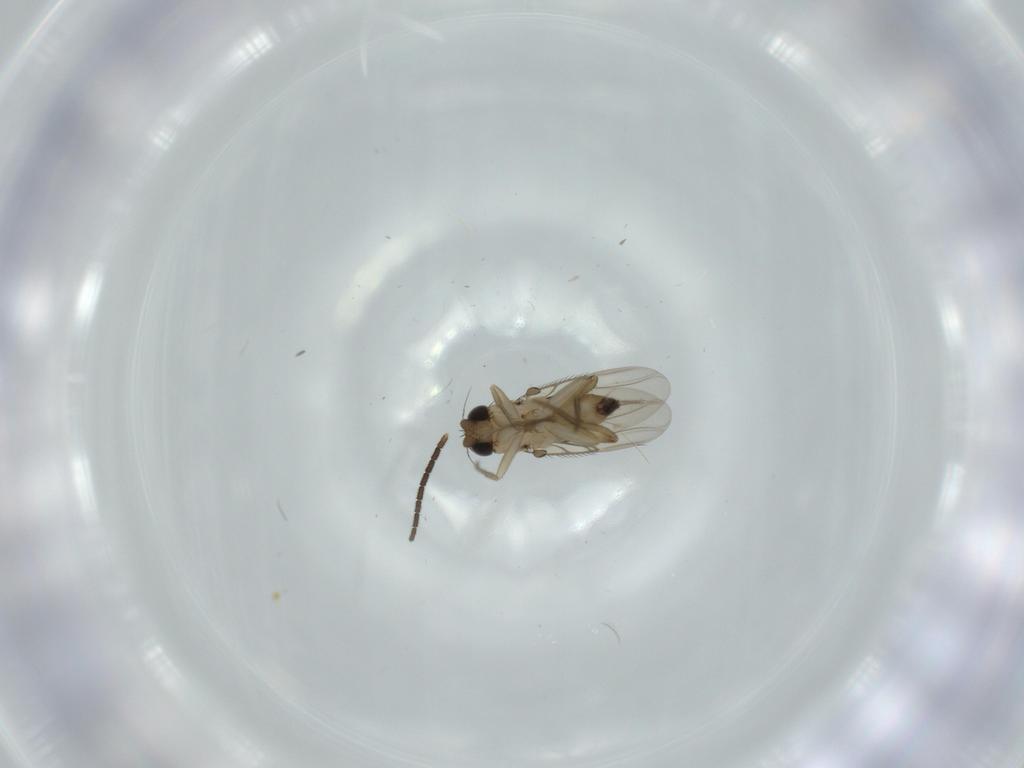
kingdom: Animalia
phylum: Arthropoda
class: Insecta
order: Diptera
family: Phoridae
